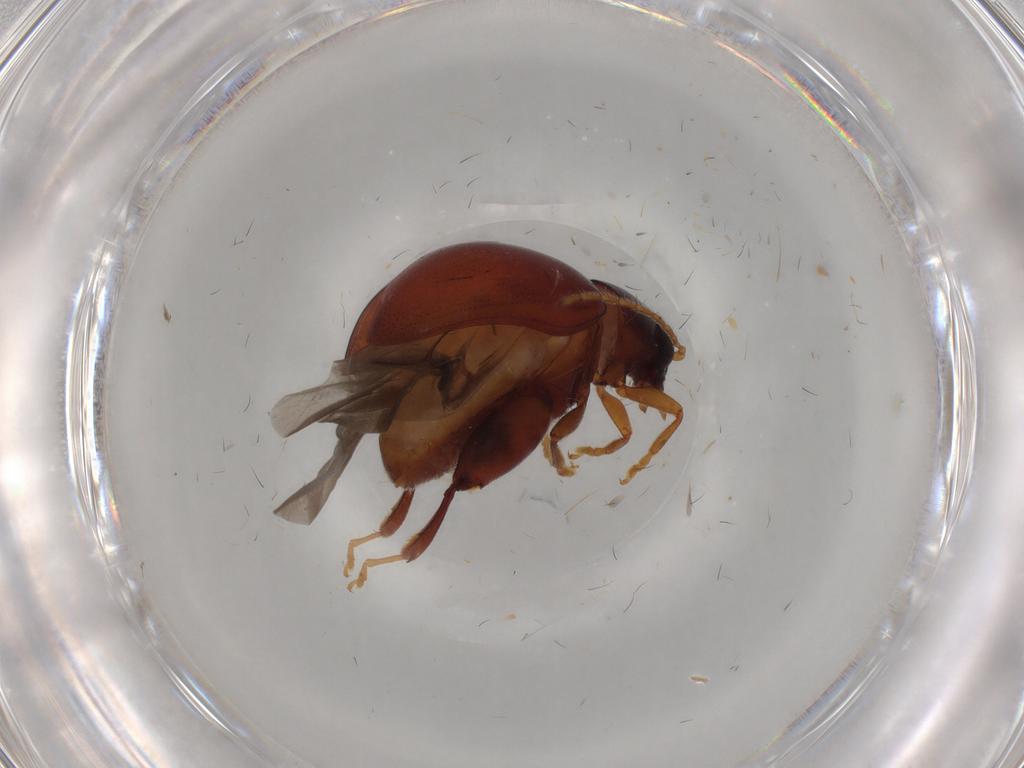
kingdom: Animalia
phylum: Arthropoda
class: Insecta
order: Coleoptera
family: Chrysomelidae
